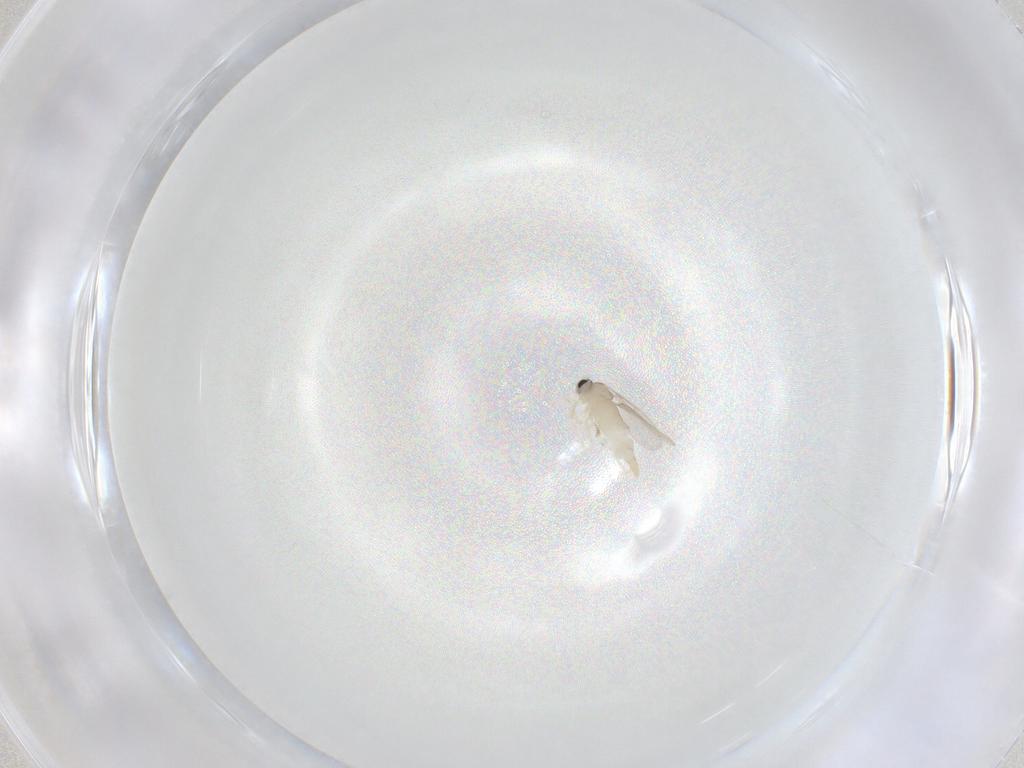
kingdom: Animalia
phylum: Arthropoda
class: Insecta
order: Diptera
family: Cecidomyiidae
